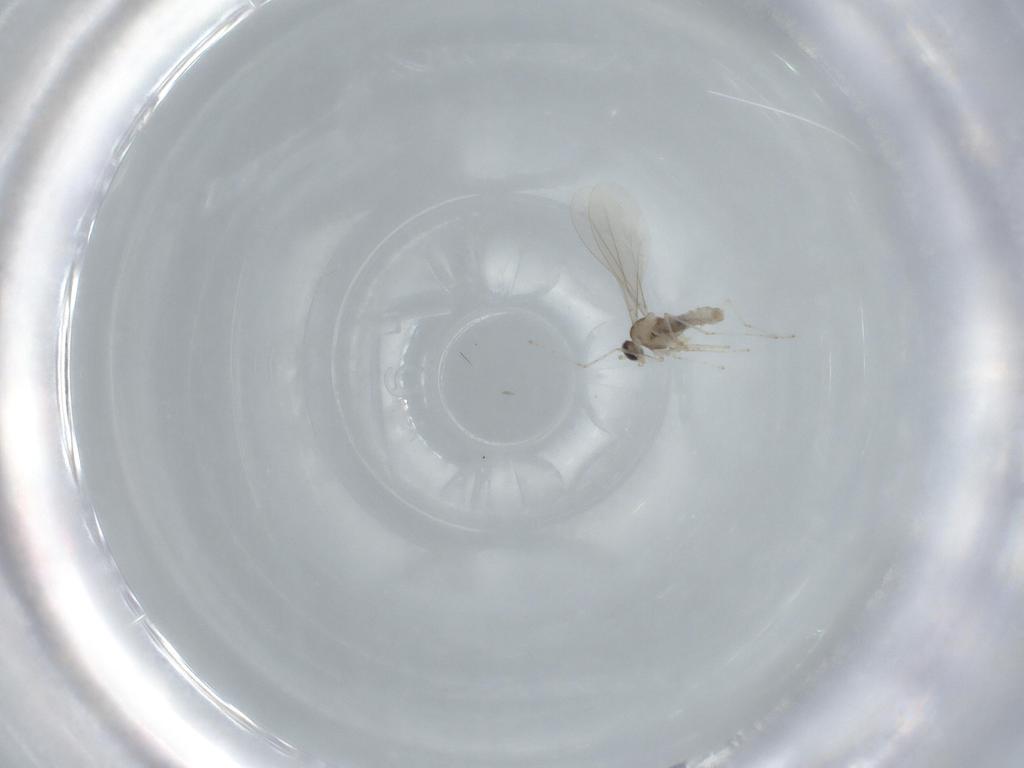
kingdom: Animalia
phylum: Arthropoda
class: Insecta
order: Diptera
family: Cecidomyiidae
